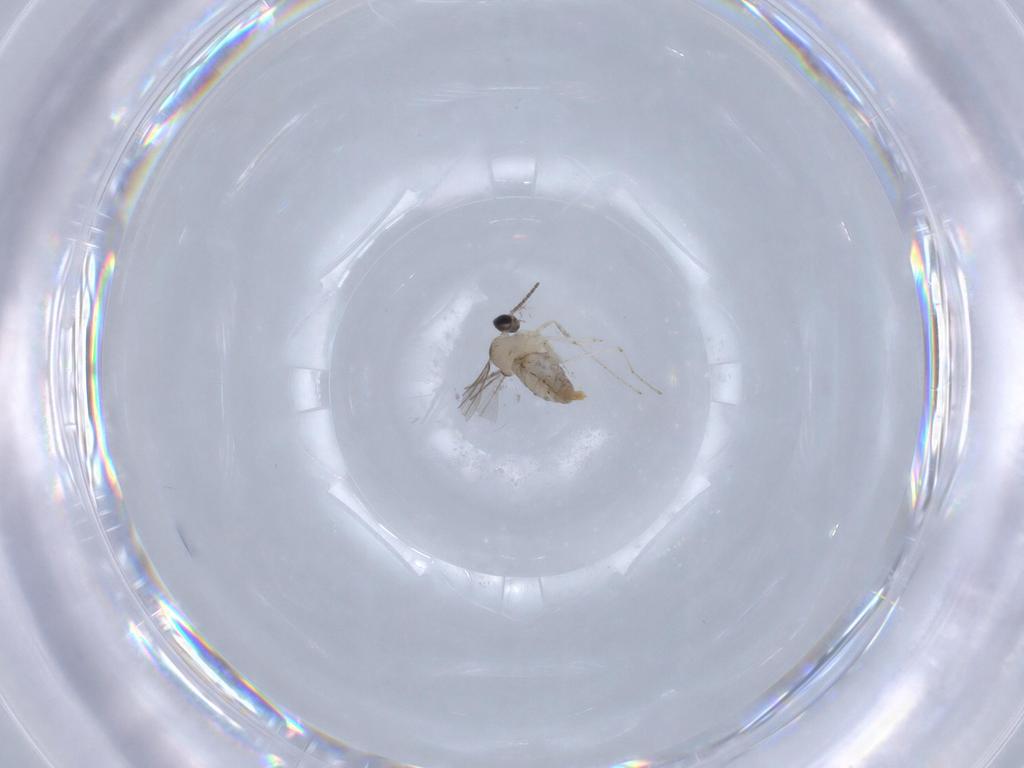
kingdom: Animalia
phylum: Arthropoda
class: Insecta
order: Diptera
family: Cecidomyiidae
